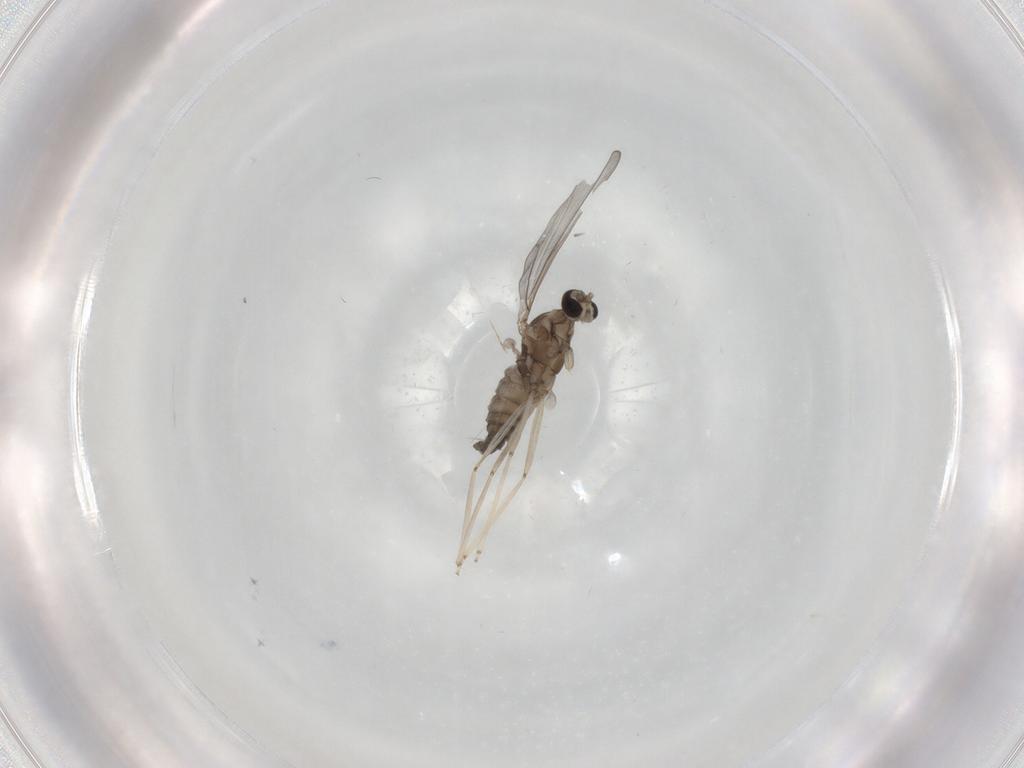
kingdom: Animalia
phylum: Arthropoda
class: Insecta
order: Diptera
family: Cecidomyiidae
